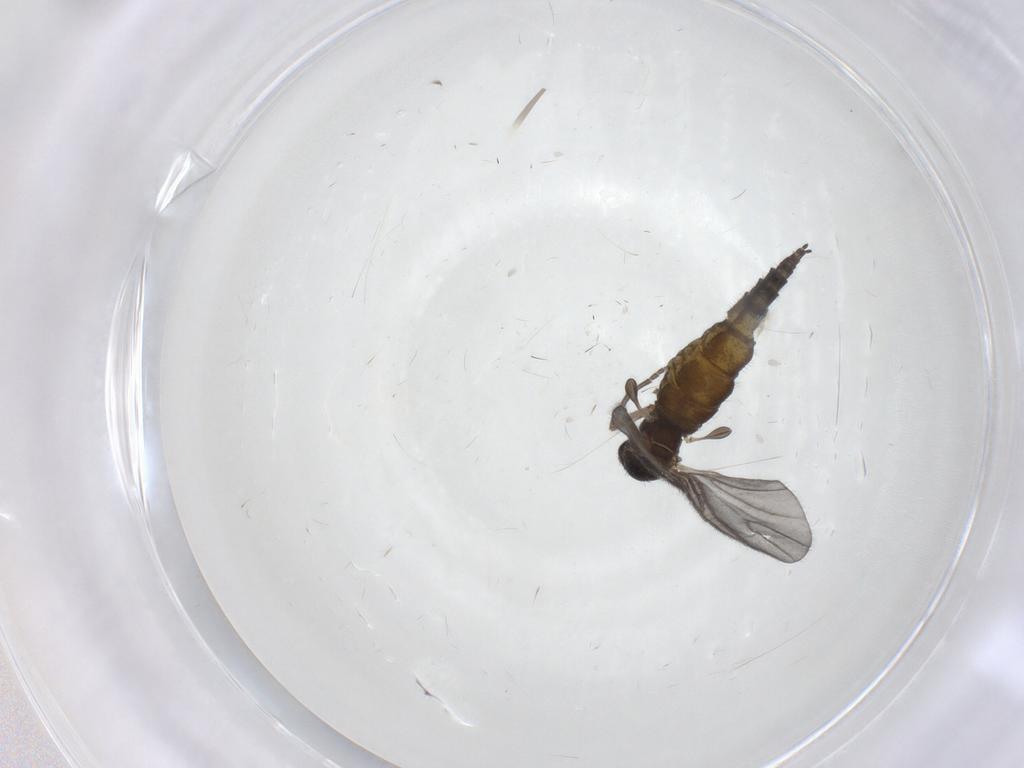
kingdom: Animalia
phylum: Arthropoda
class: Insecta
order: Diptera
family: Sciaridae
